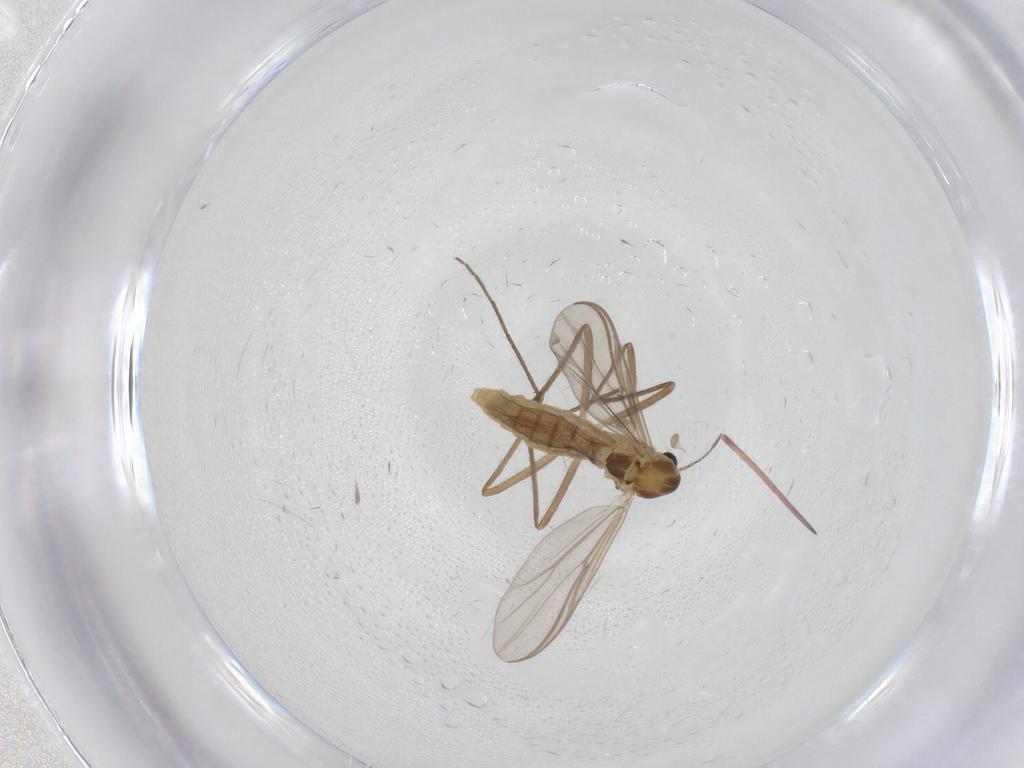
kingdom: Animalia
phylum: Arthropoda
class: Insecta
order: Diptera
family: Chironomidae
